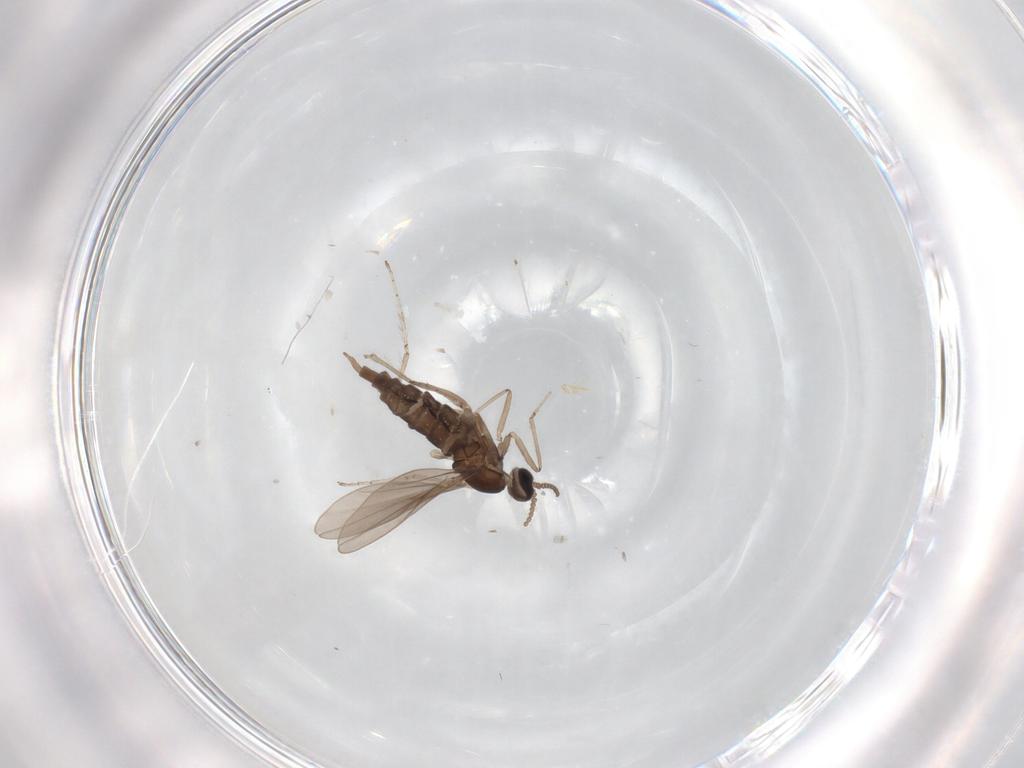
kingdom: Animalia
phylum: Arthropoda
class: Insecta
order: Diptera
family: Cecidomyiidae
